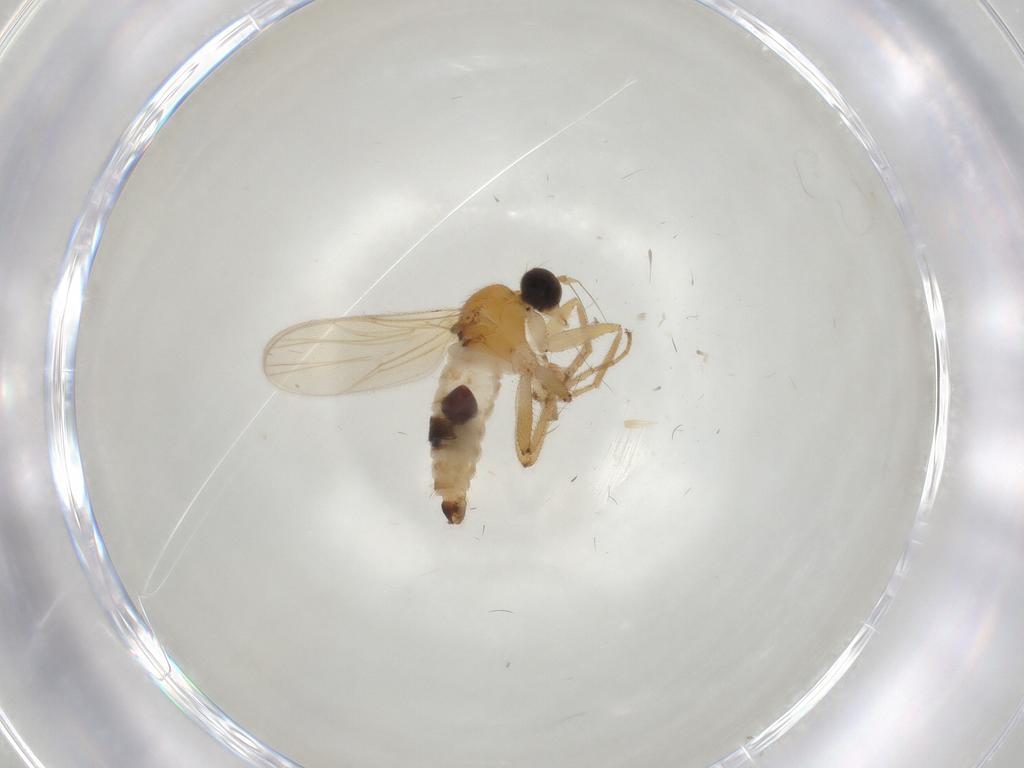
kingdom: Animalia
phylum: Arthropoda
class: Insecta
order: Diptera
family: Hybotidae
